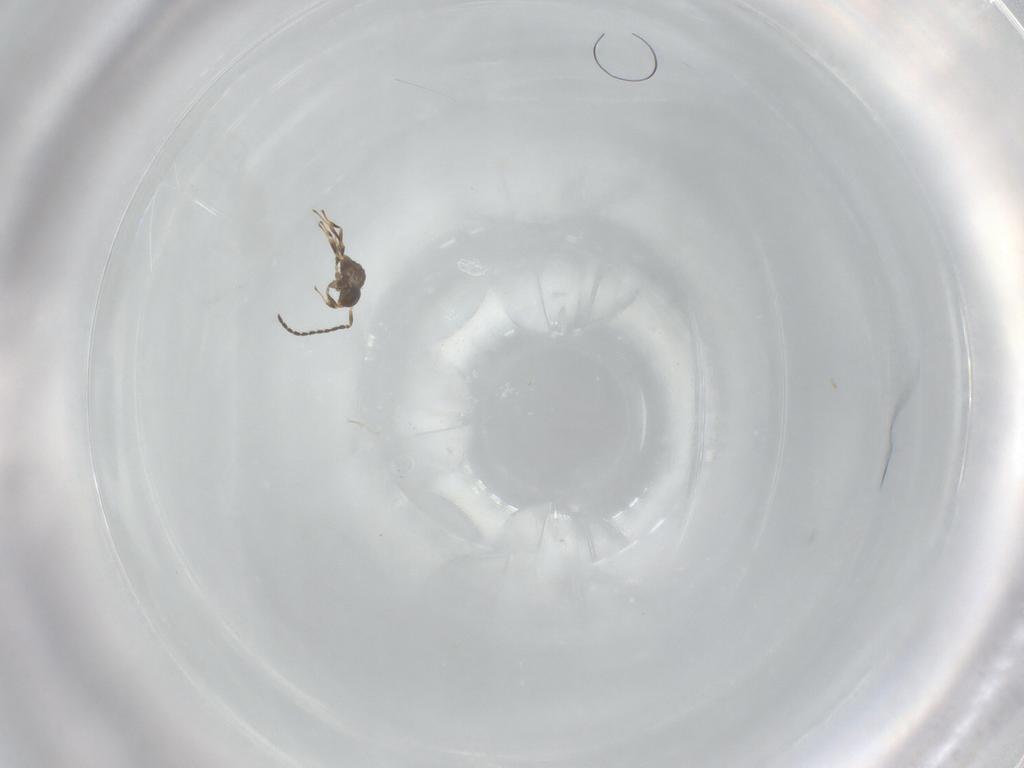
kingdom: Animalia
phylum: Arthropoda
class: Insecta
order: Hymenoptera
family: Scelionidae
